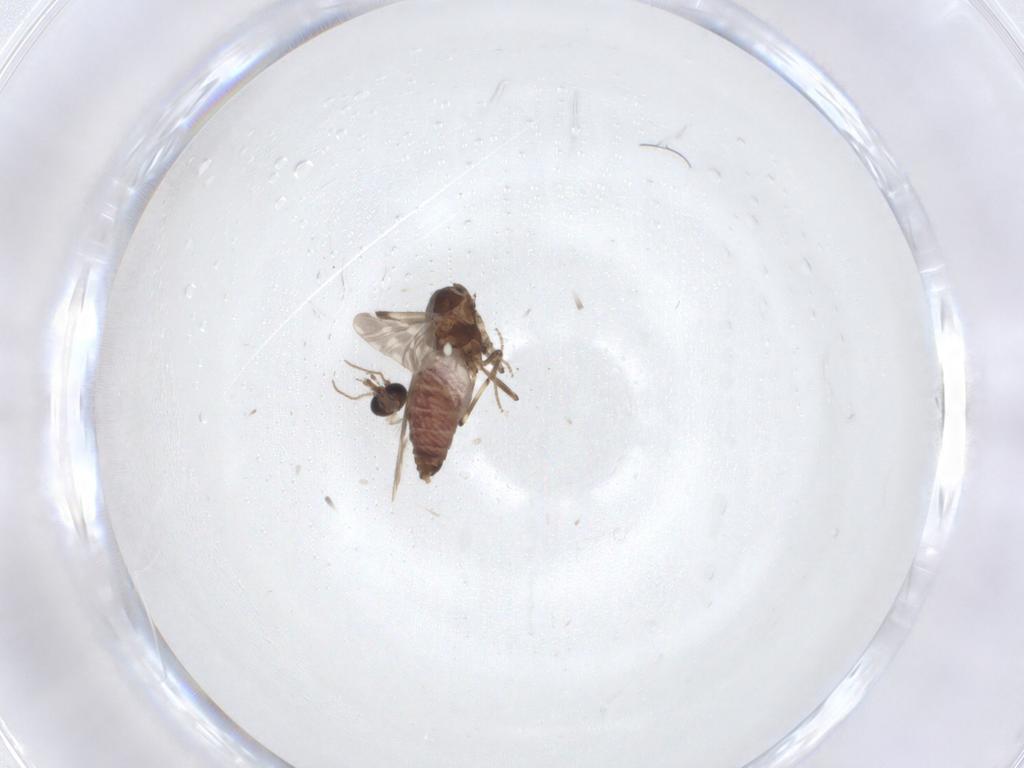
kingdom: Animalia
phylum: Arthropoda
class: Insecta
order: Diptera
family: Ceratopogonidae
